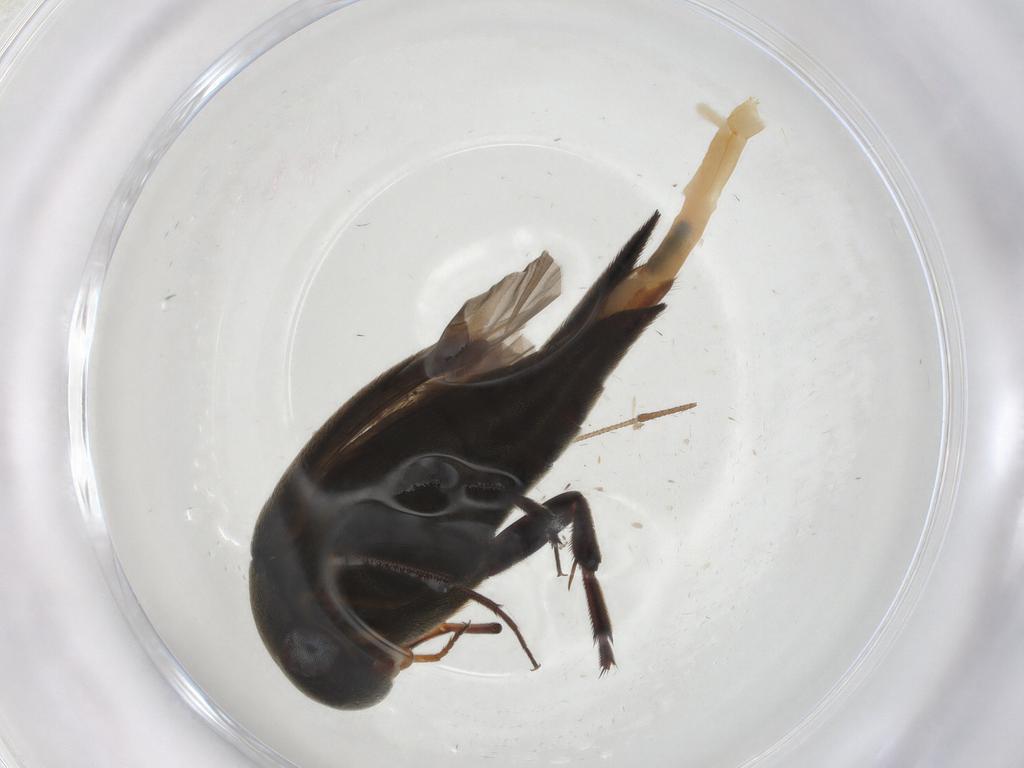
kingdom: Animalia
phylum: Arthropoda
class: Insecta
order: Coleoptera
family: Mordellidae
